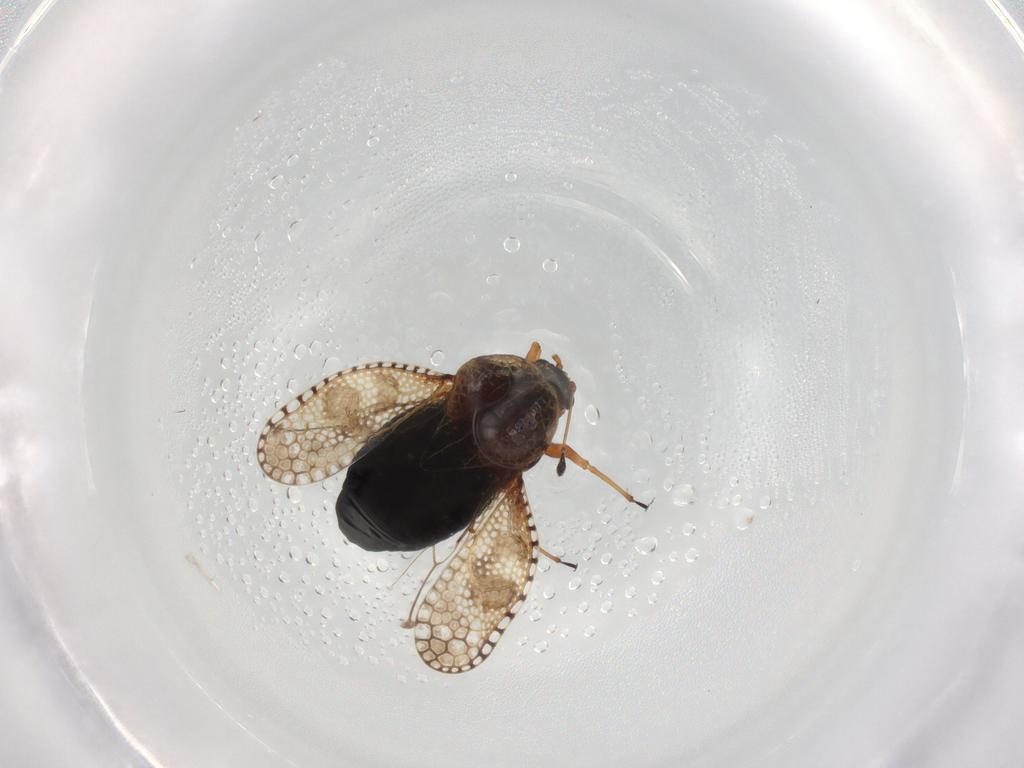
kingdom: Animalia
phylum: Arthropoda
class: Insecta
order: Hemiptera
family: Tingidae
